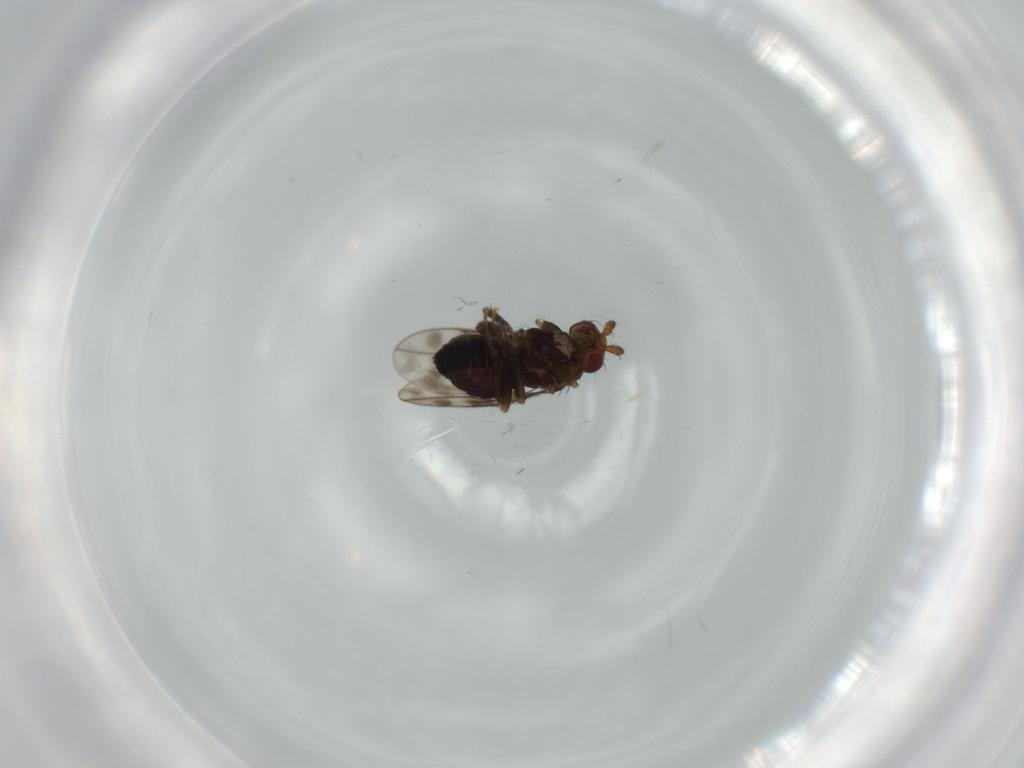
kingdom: Animalia
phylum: Arthropoda
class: Insecta
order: Diptera
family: Sphaeroceridae
